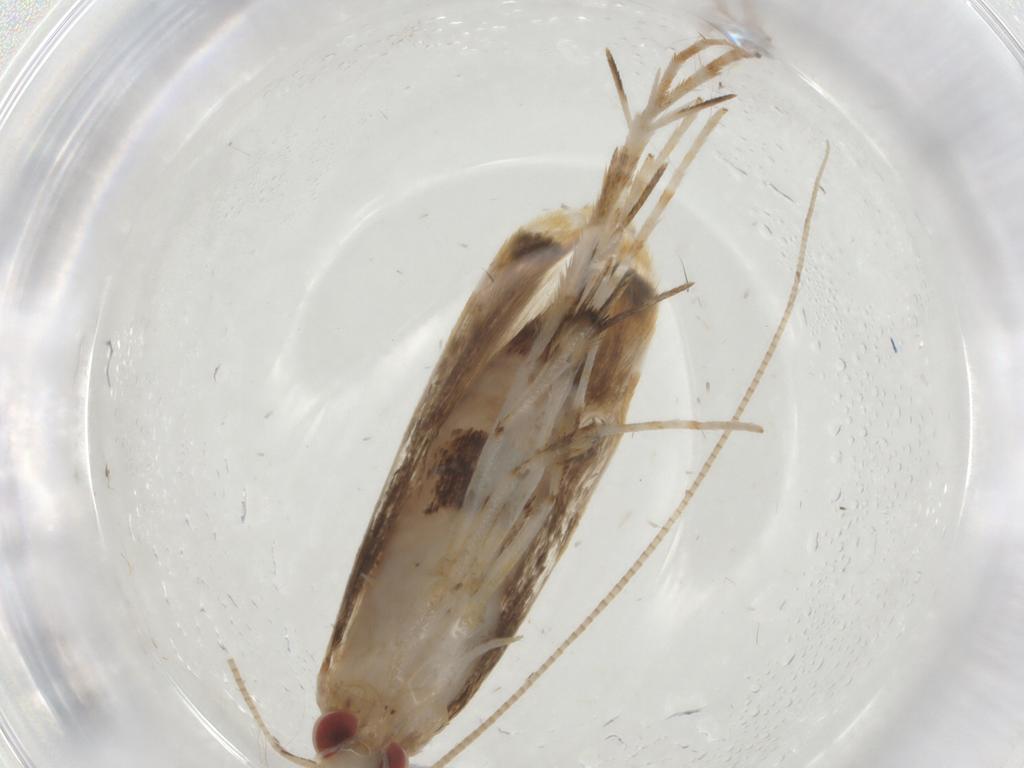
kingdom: Animalia
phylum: Arthropoda
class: Insecta
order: Lepidoptera
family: Gracillariidae
